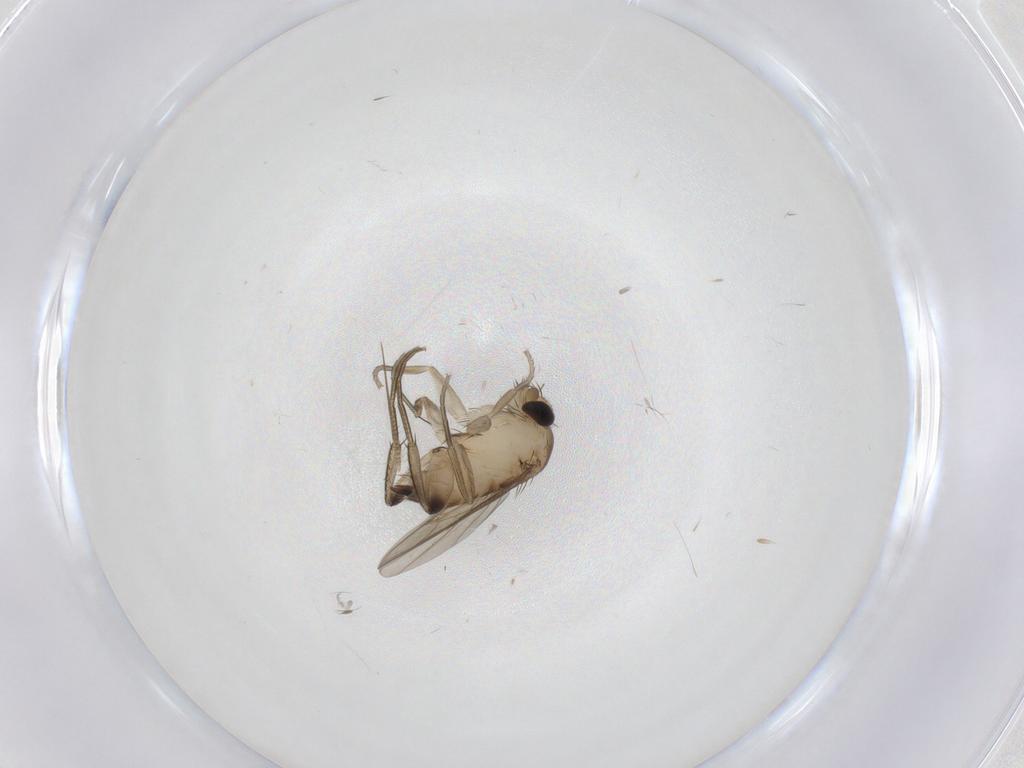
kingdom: Animalia
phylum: Arthropoda
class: Insecta
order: Diptera
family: Phoridae
